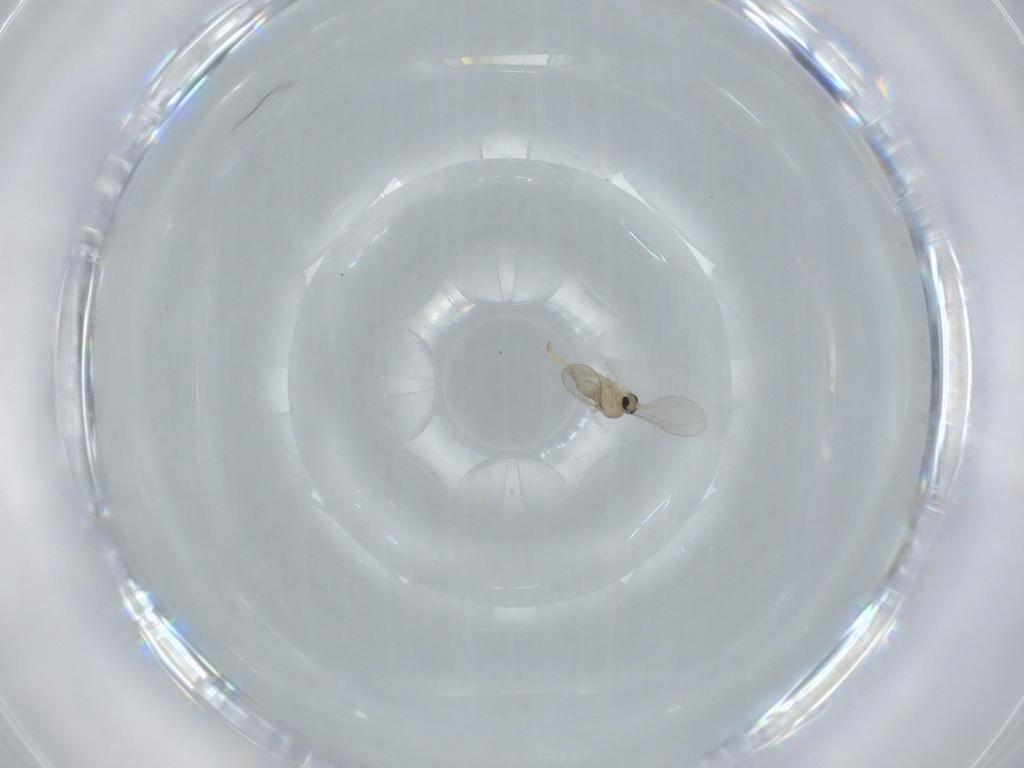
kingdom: Animalia
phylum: Arthropoda
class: Insecta
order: Diptera
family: Cecidomyiidae
